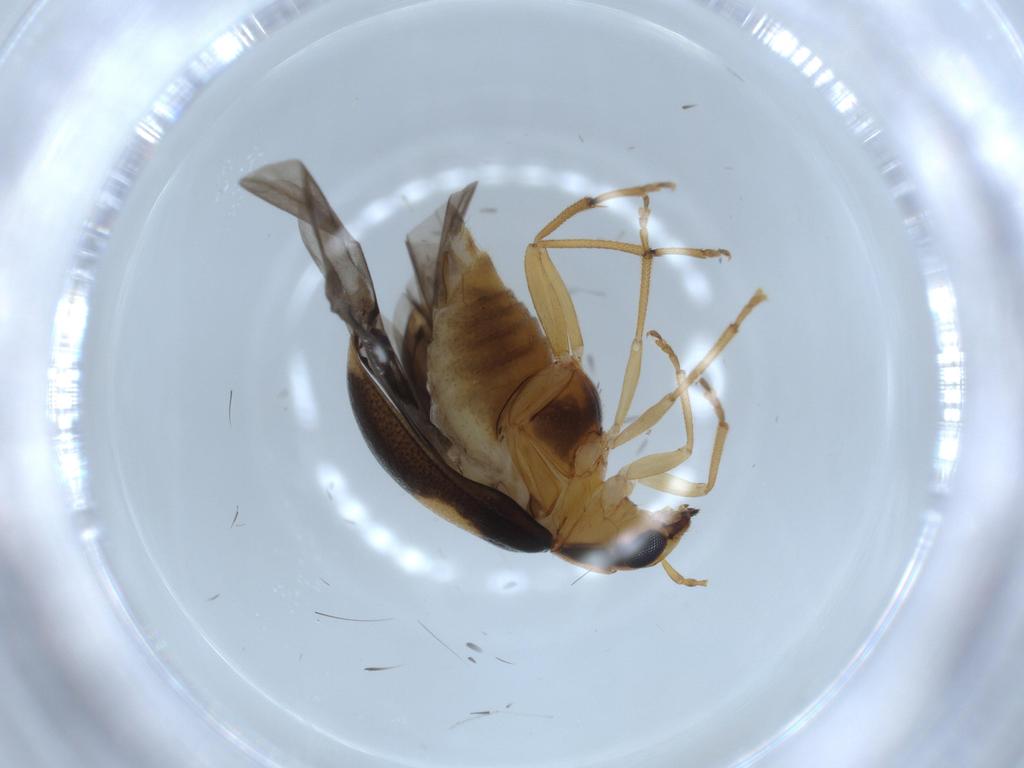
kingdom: Animalia
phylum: Arthropoda
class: Insecta
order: Coleoptera
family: Chrysomelidae
